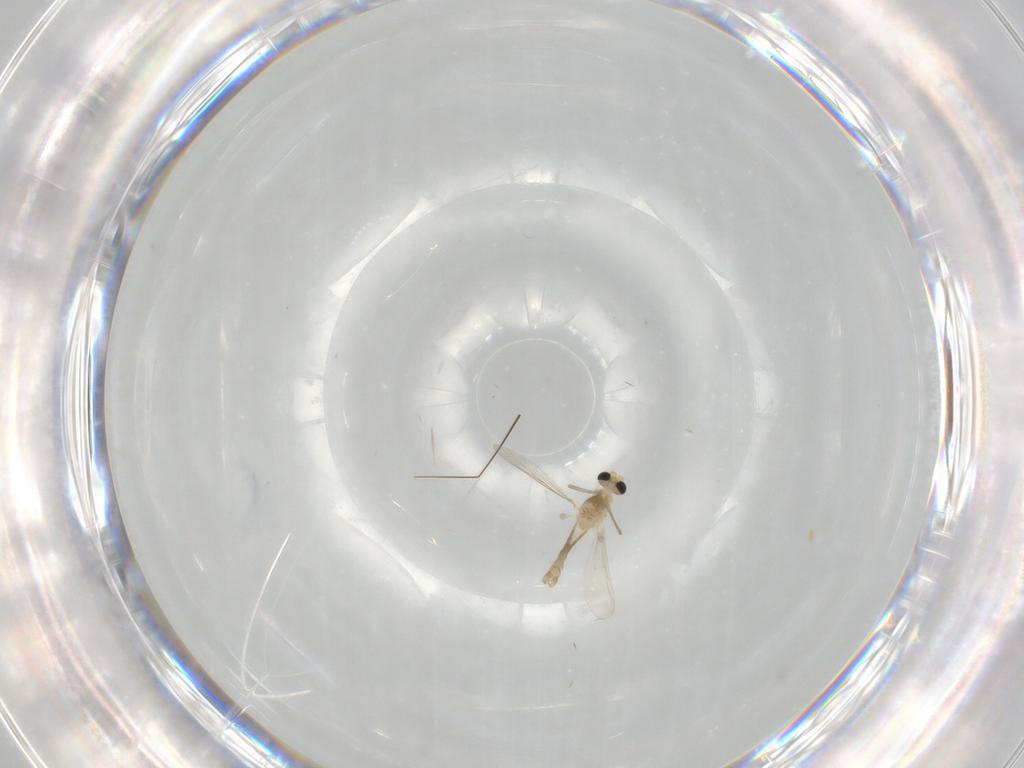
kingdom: Animalia
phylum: Arthropoda
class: Insecta
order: Diptera
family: Chironomidae
